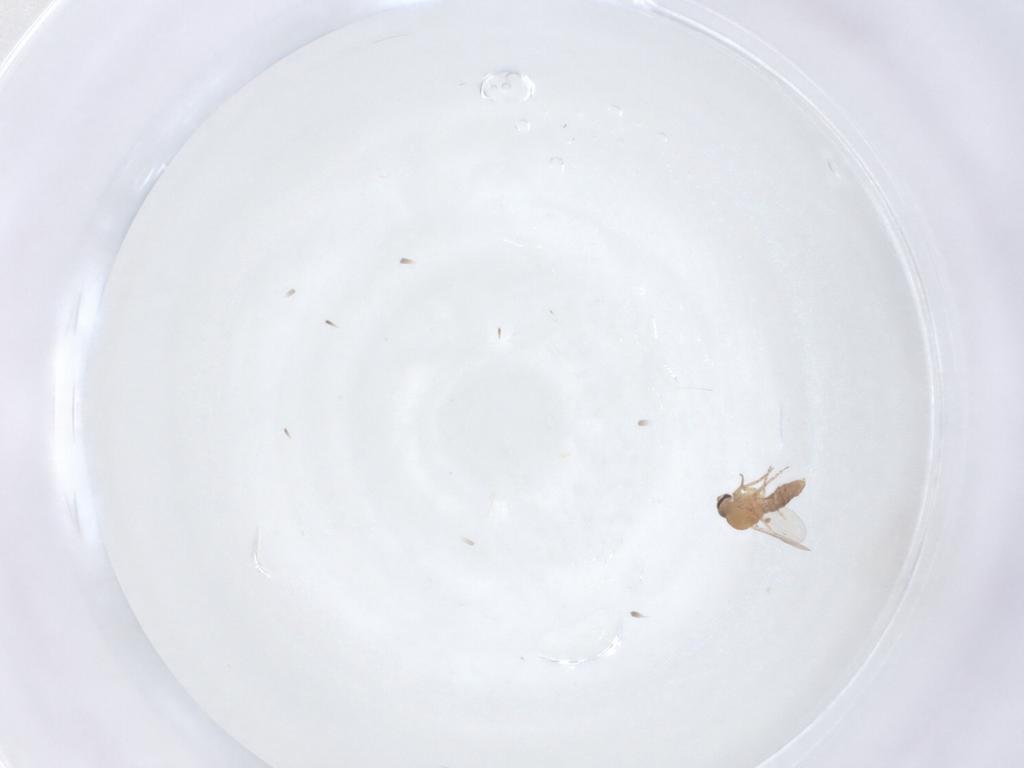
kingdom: Animalia
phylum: Arthropoda
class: Insecta
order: Diptera
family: Ceratopogonidae
